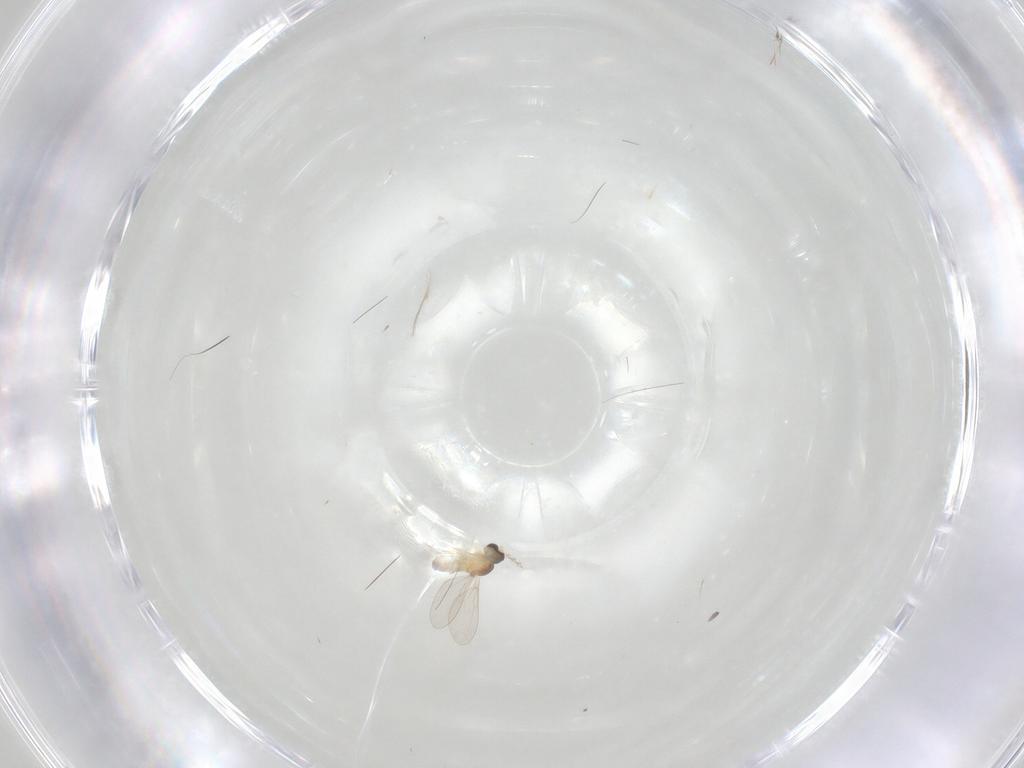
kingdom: Animalia
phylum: Arthropoda
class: Insecta
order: Diptera
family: Cecidomyiidae
